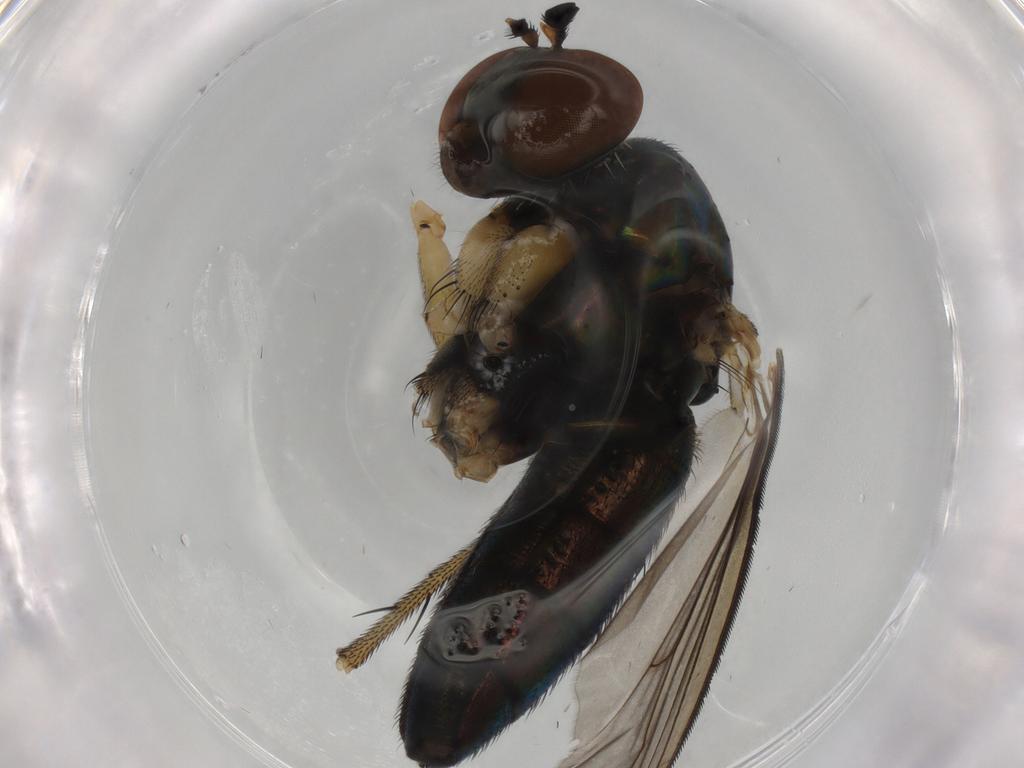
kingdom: Animalia
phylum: Arthropoda
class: Insecta
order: Diptera
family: Dolichopodidae
